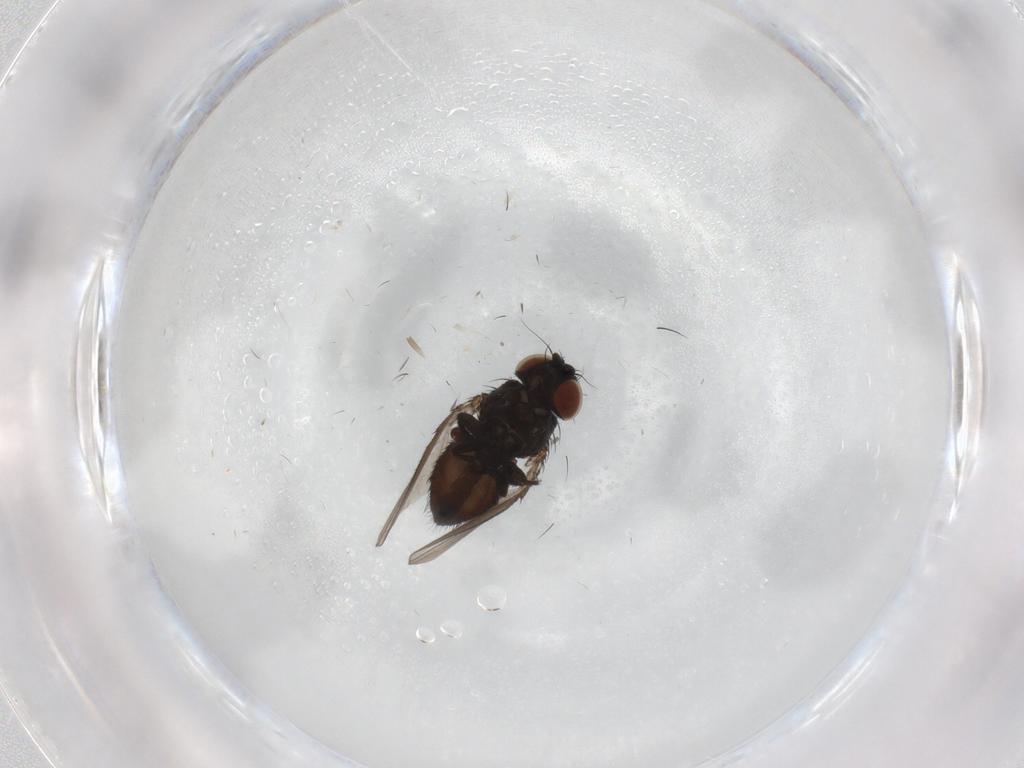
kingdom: Animalia
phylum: Arthropoda
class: Insecta
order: Diptera
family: Milichiidae
